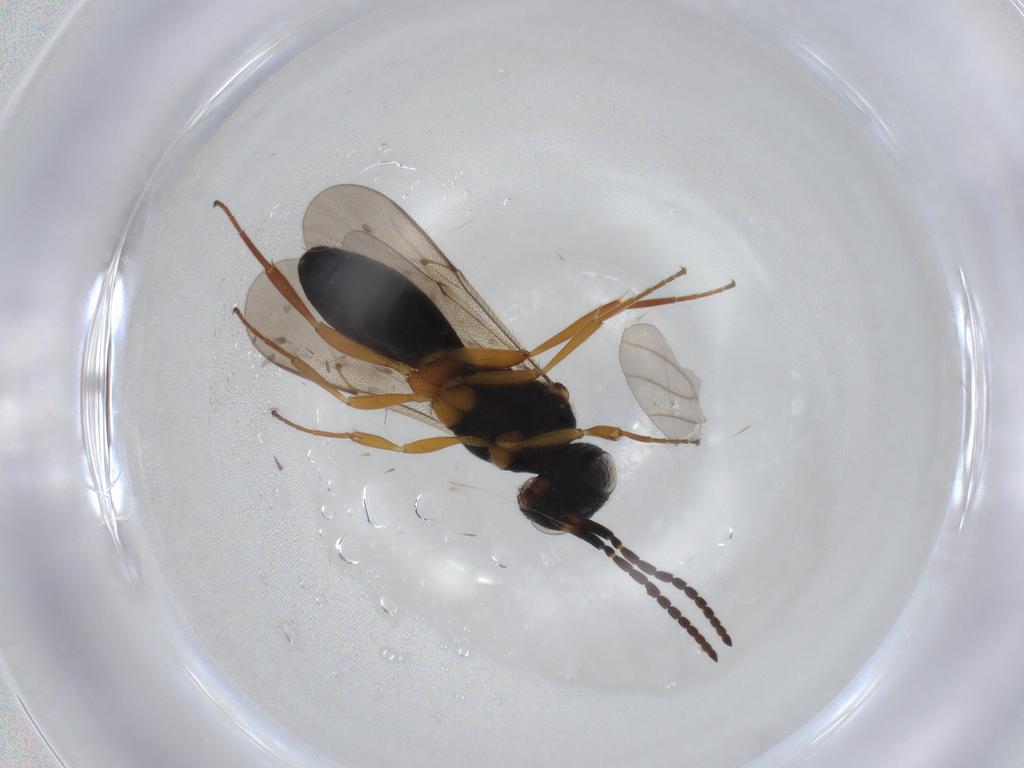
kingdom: Animalia
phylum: Arthropoda
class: Insecta
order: Hymenoptera
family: Scelionidae
